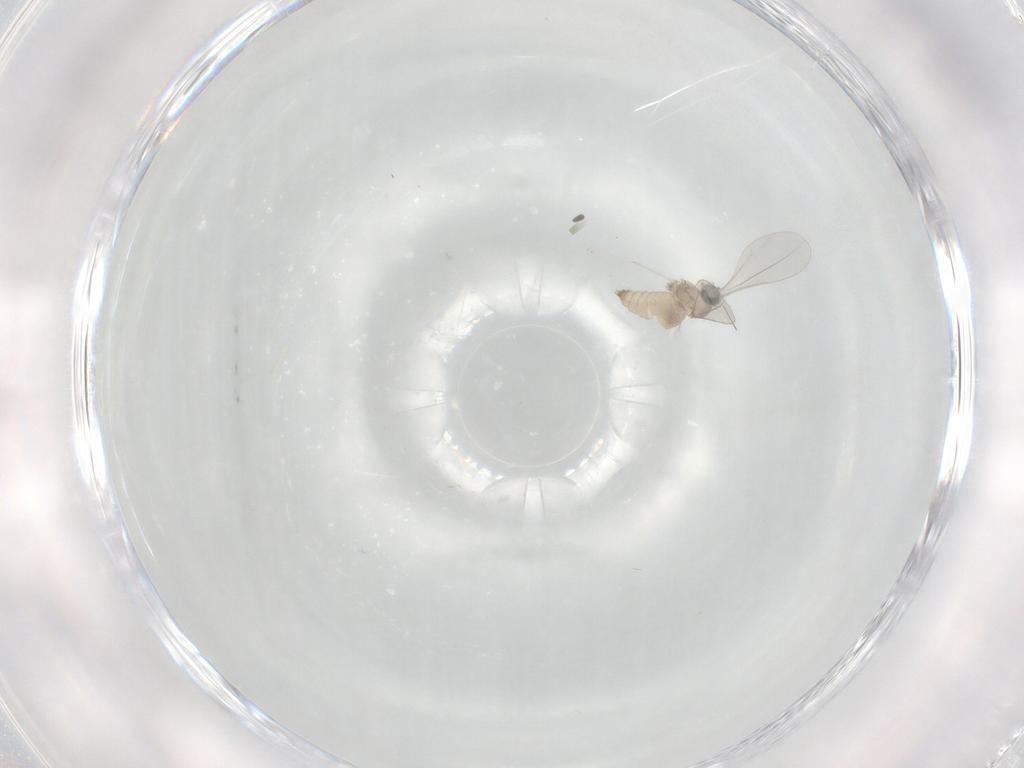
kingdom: Animalia
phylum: Arthropoda
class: Insecta
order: Diptera
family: Cecidomyiidae
